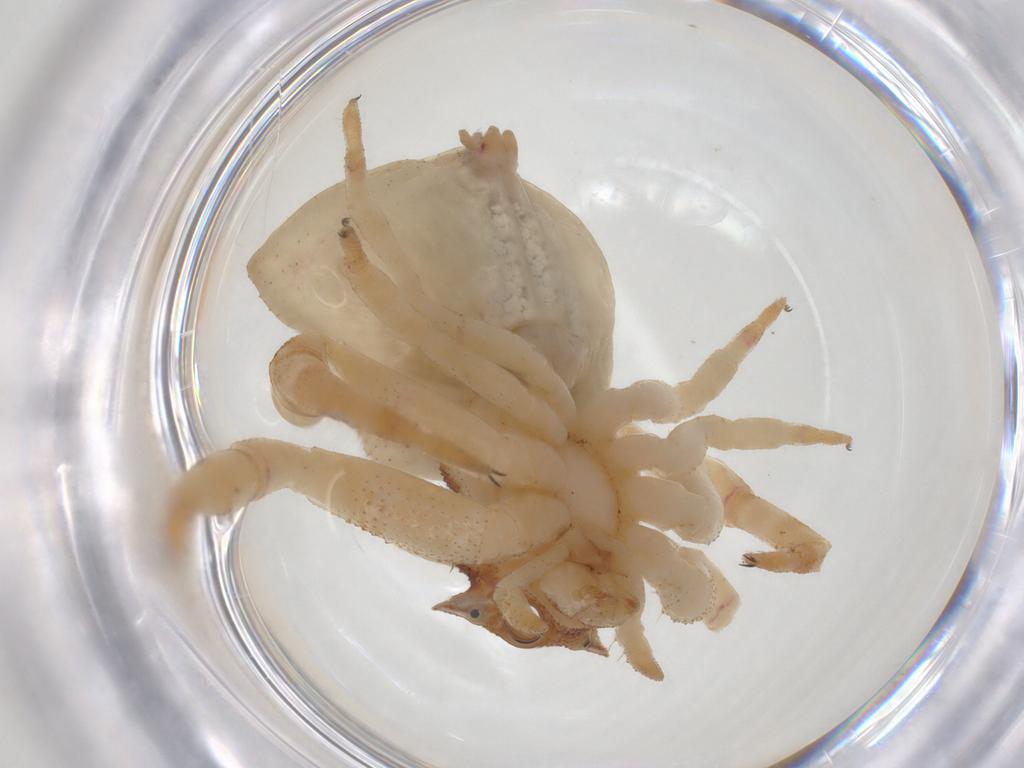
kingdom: Animalia
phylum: Arthropoda
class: Arachnida
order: Araneae
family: Thomisidae
